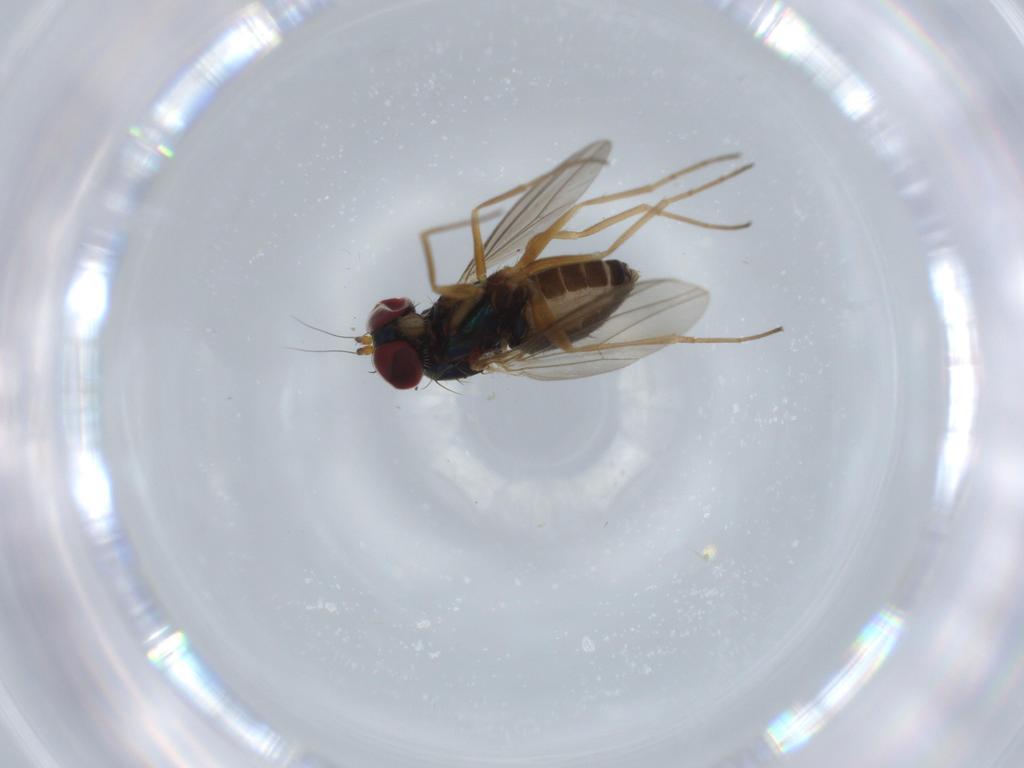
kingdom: Animalia
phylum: Arthropoda
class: Insecta
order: Diptera
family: Dolichopodidae
